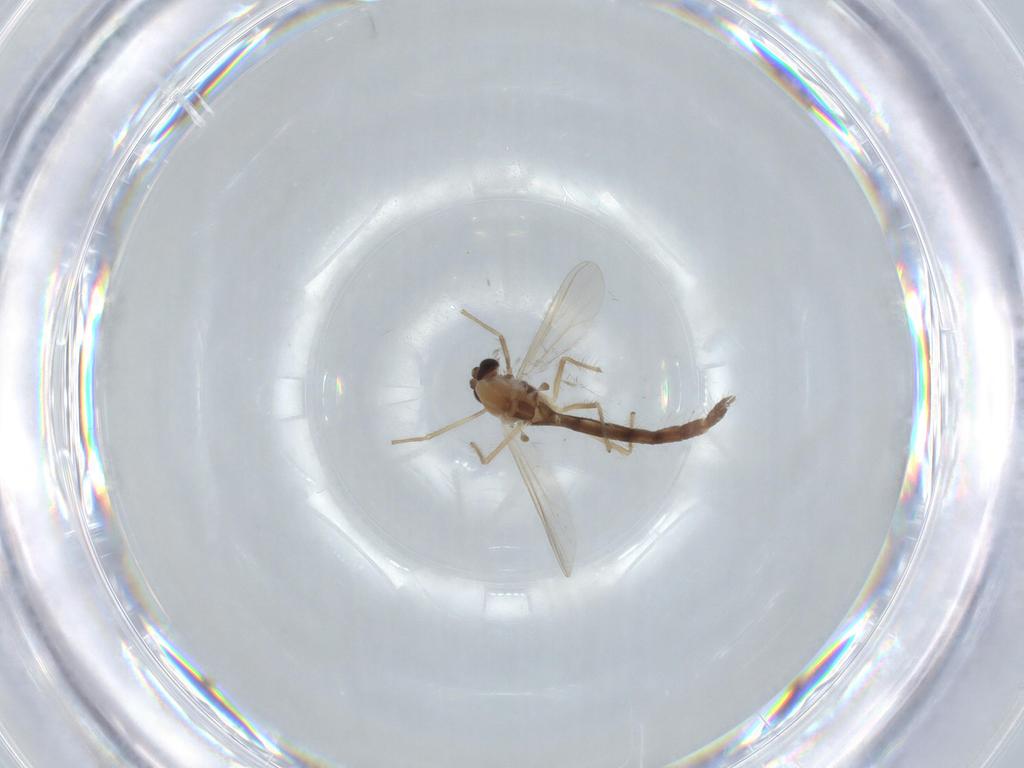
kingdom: Animalia
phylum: Arthropoda
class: Insecta
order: Diptera
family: Chironomidae
